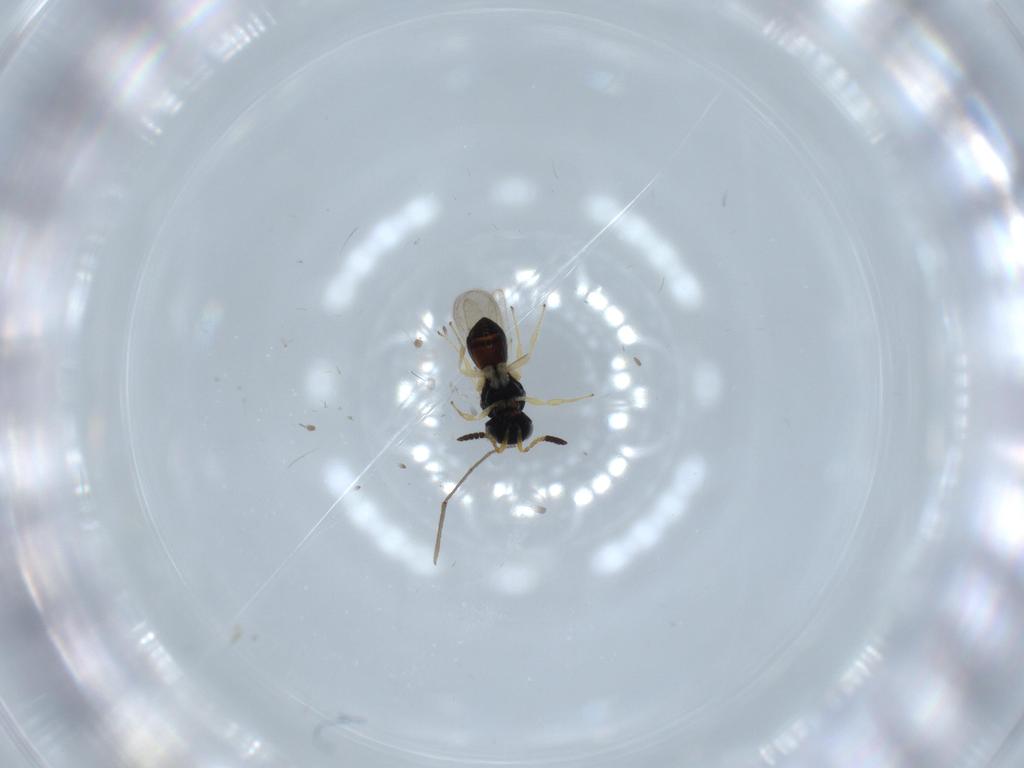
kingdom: Animalia
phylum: Arthropoda
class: Insecta
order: Hymenoptera
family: Scelionidae
